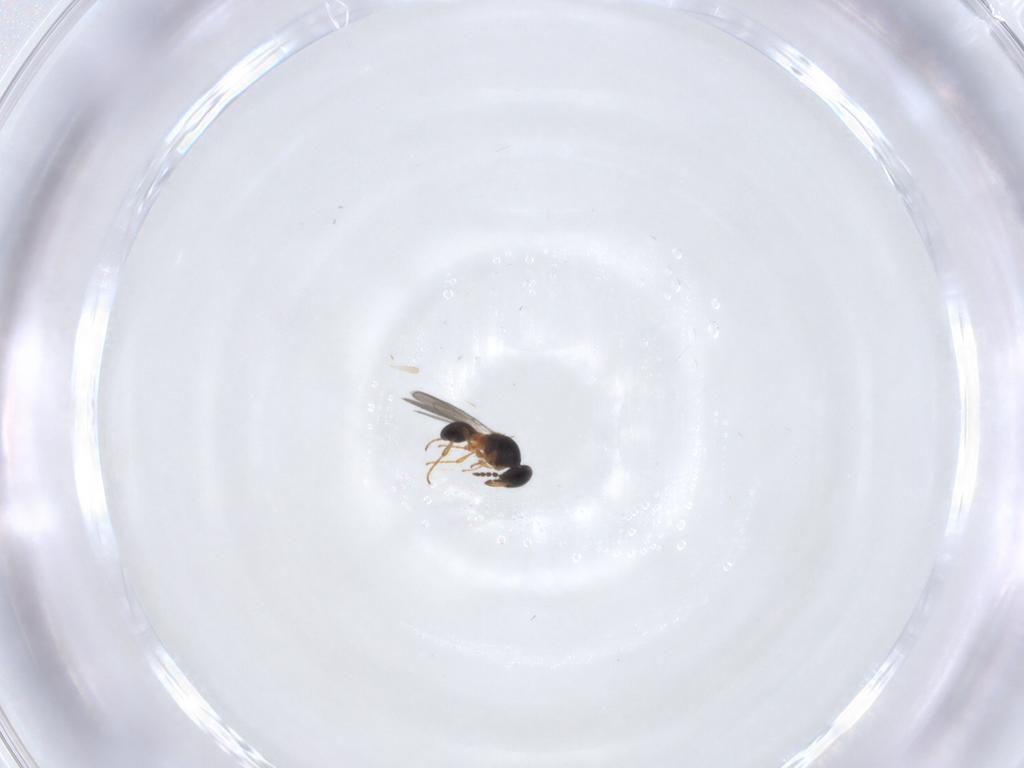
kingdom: Animalia
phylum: Arthropoda
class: Insecta
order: Hymenoptera
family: Platygastridae
